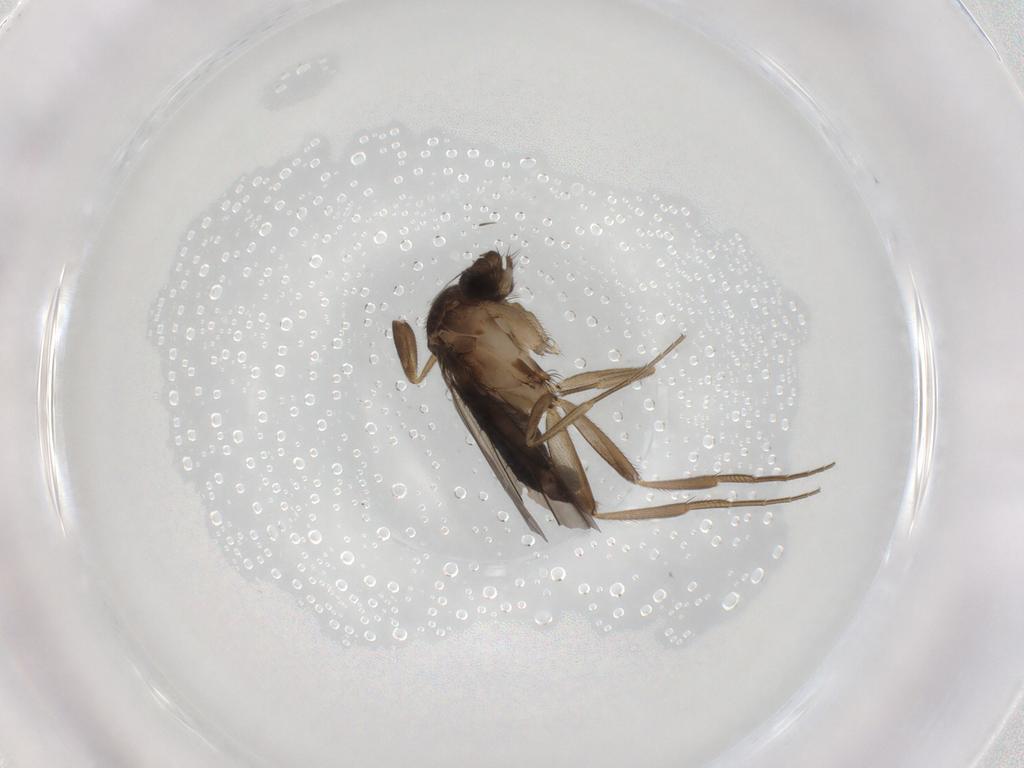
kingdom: Animalia
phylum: Arthropoda
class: Insecta
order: Diptera
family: Phoridae
